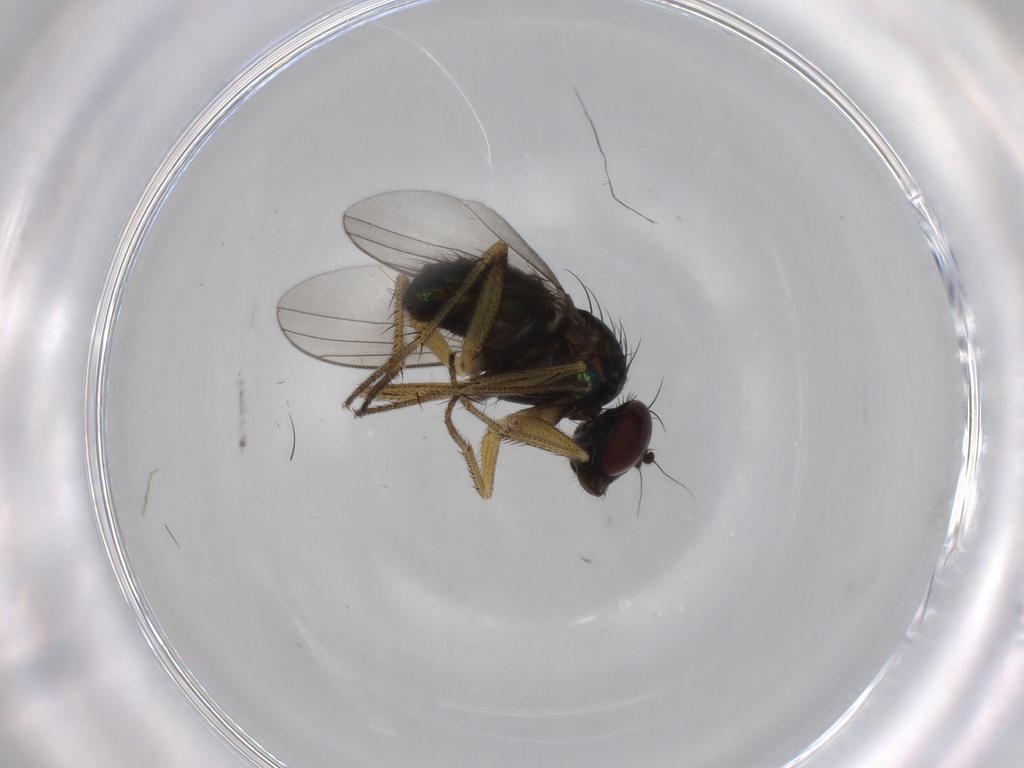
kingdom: Animalia
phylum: Arthropoda
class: Insecta
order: Diptera
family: Dolichopodidae
